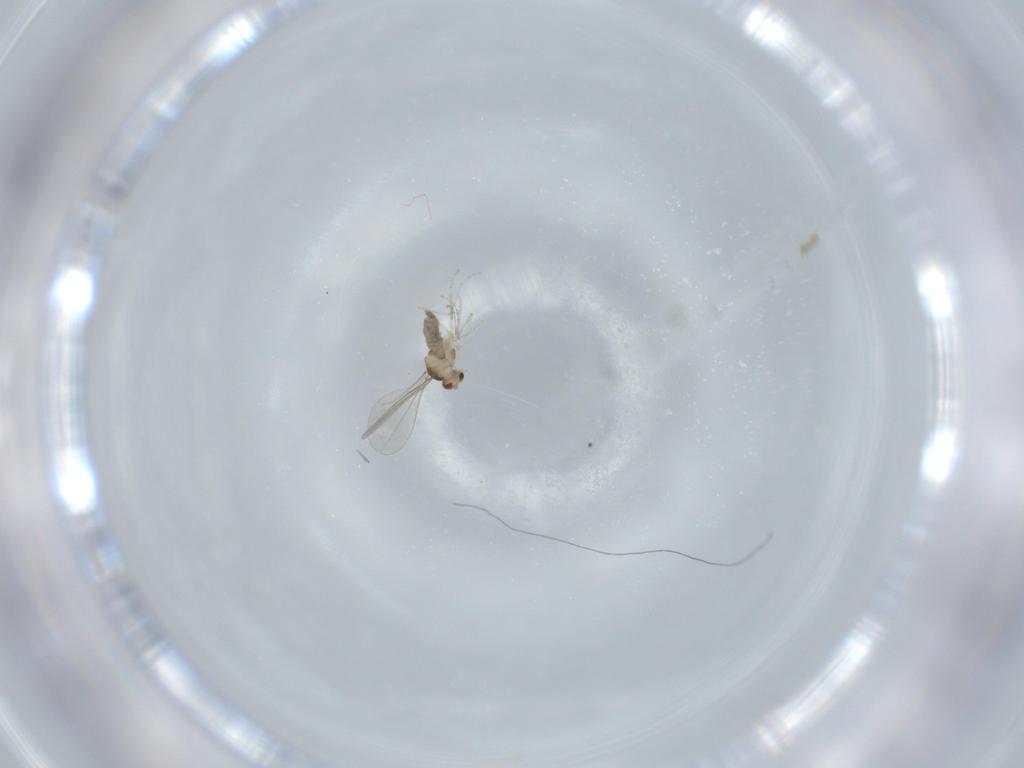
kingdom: Animalia
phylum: Arthropoda
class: Insecta
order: Diptera
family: Cecidomyiidae
